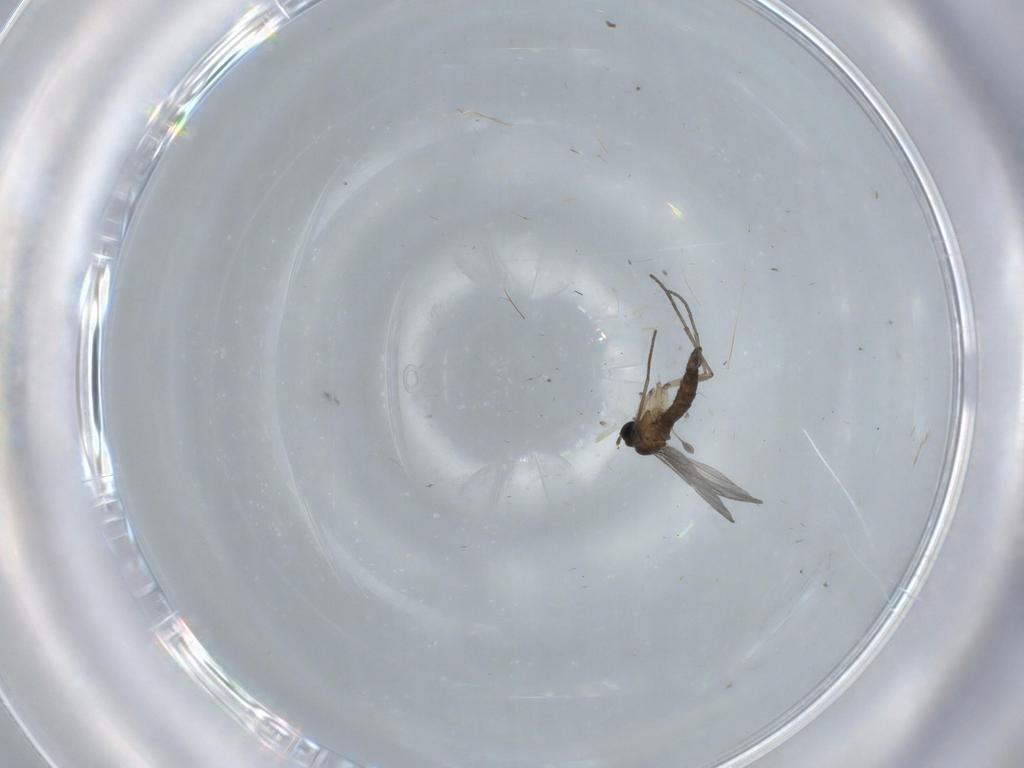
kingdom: Animalia
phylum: Arthropoda
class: Insecta
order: Diptera
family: Sciaridae
